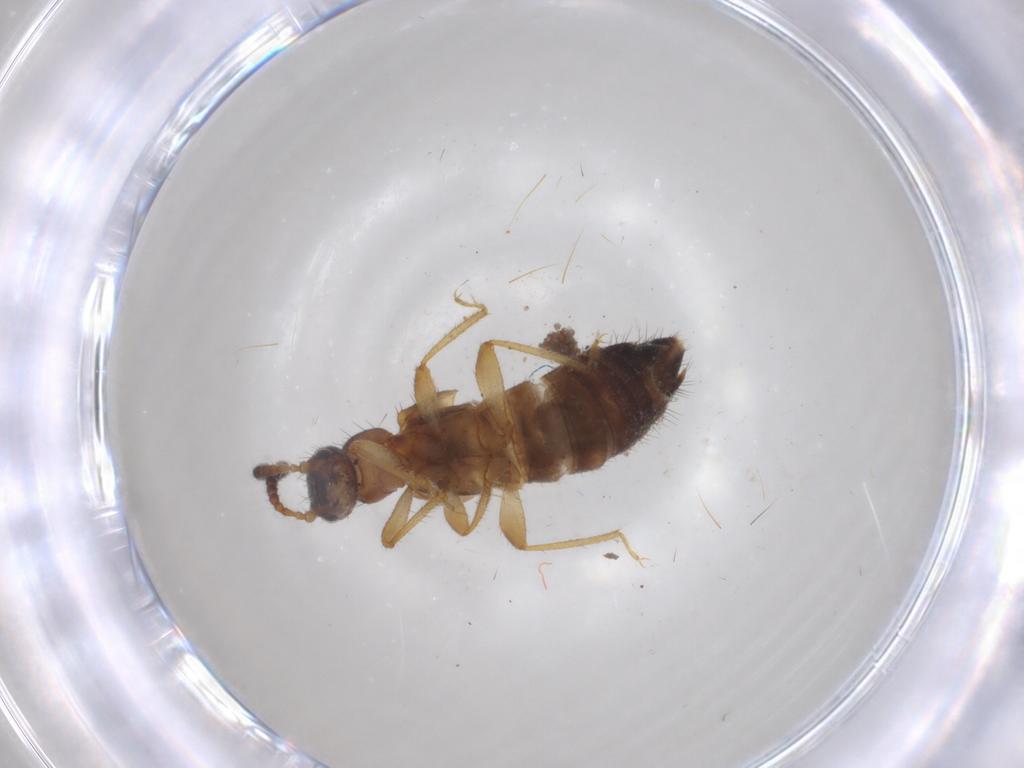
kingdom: Animalia
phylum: Arthropoda
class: Insecta
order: Coleoptera
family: Staphylinidae
